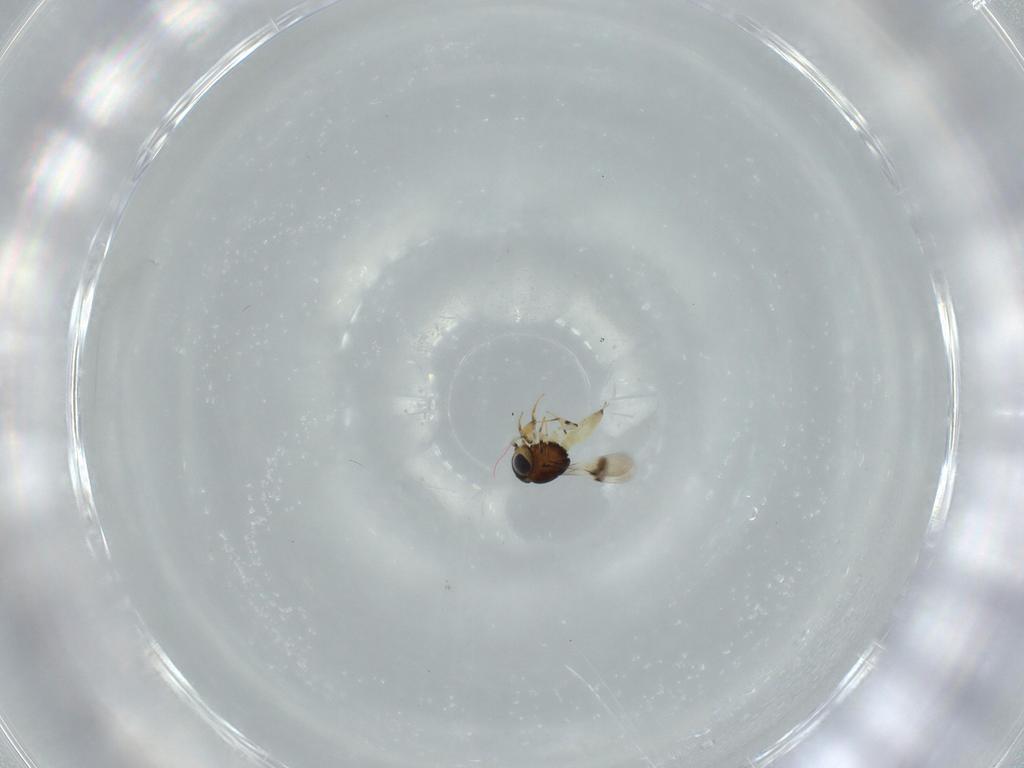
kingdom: Animalia
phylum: Arthropoda
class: Insecta
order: Hymenoptera
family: Scelionidae
